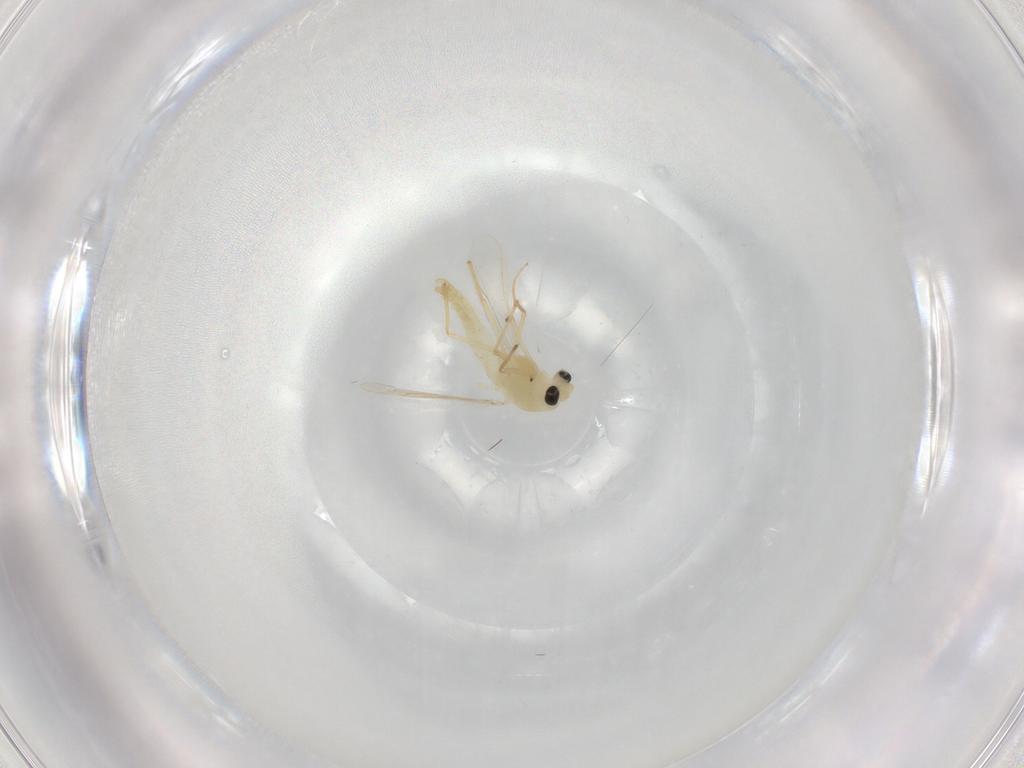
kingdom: Animalia
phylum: Arthropoda
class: Insecta
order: Diptera
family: Chironomidae
